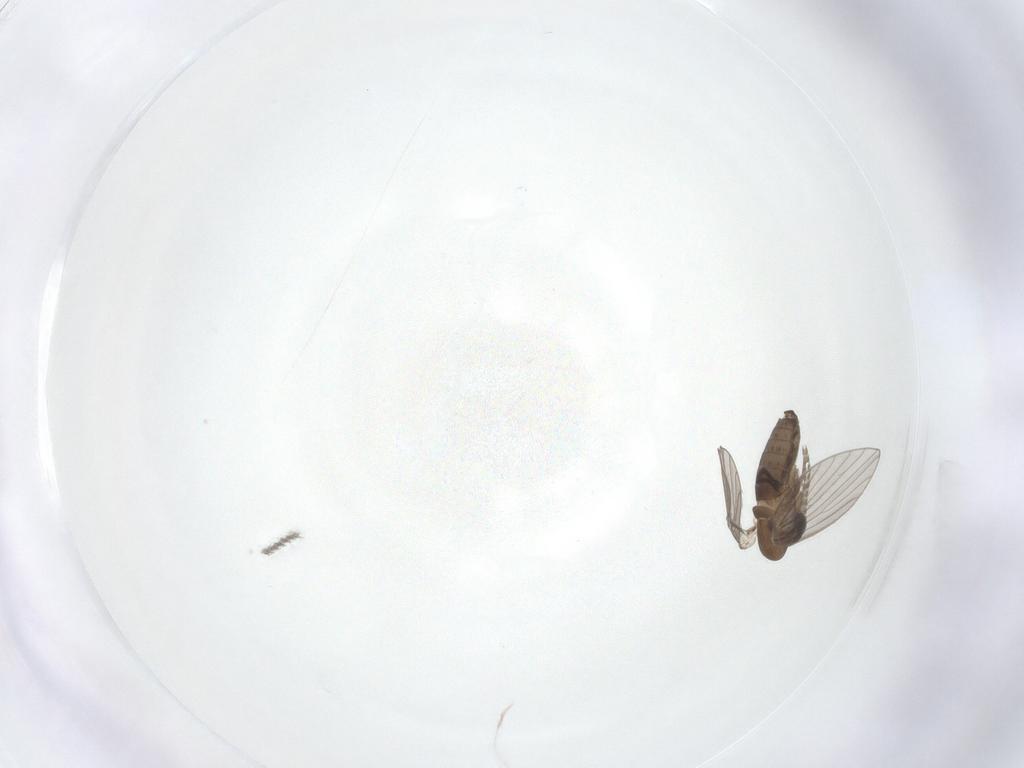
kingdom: Animalia
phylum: Arthropoda
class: Insecta
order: Diptera
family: Psychodidae
